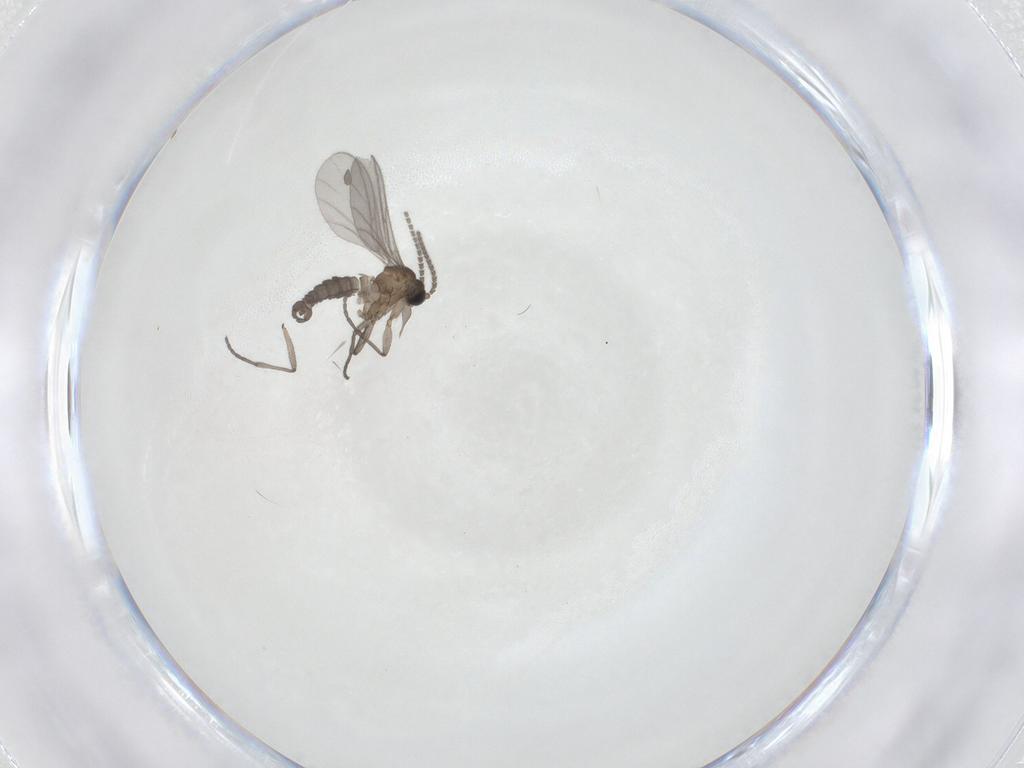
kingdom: Animalia
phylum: Arthropoda
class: Insecta
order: Diptera
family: Sciaridae
